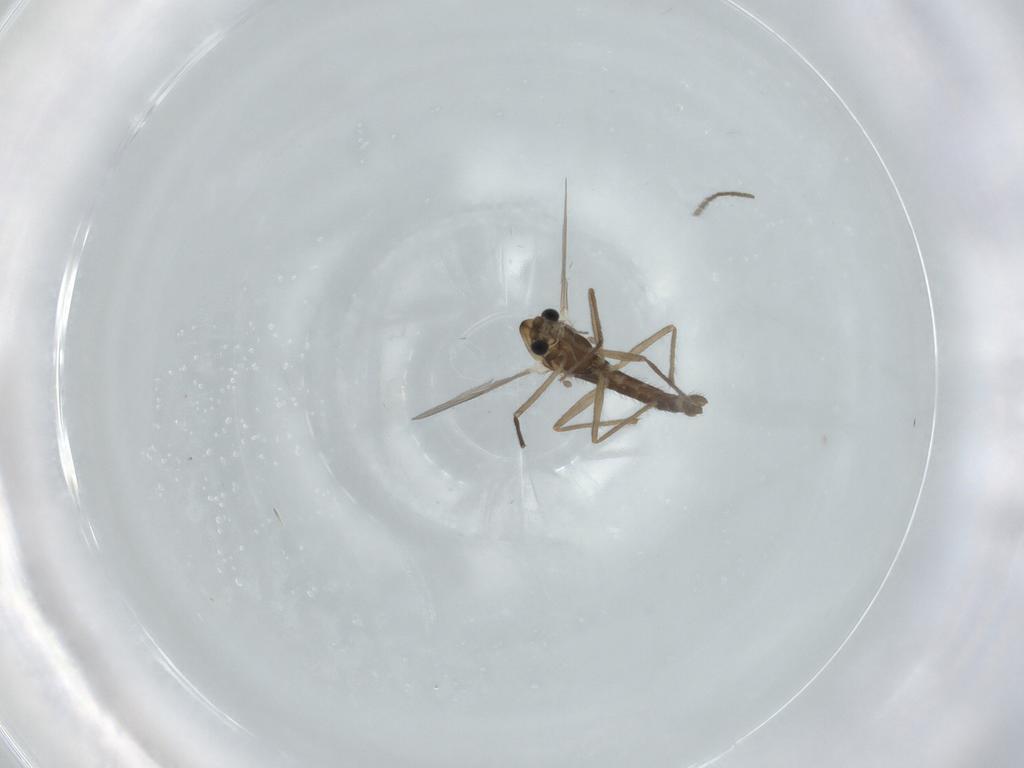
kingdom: Animalia
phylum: Arthropoda
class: Insecta
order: Diptera
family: Chironomidae
